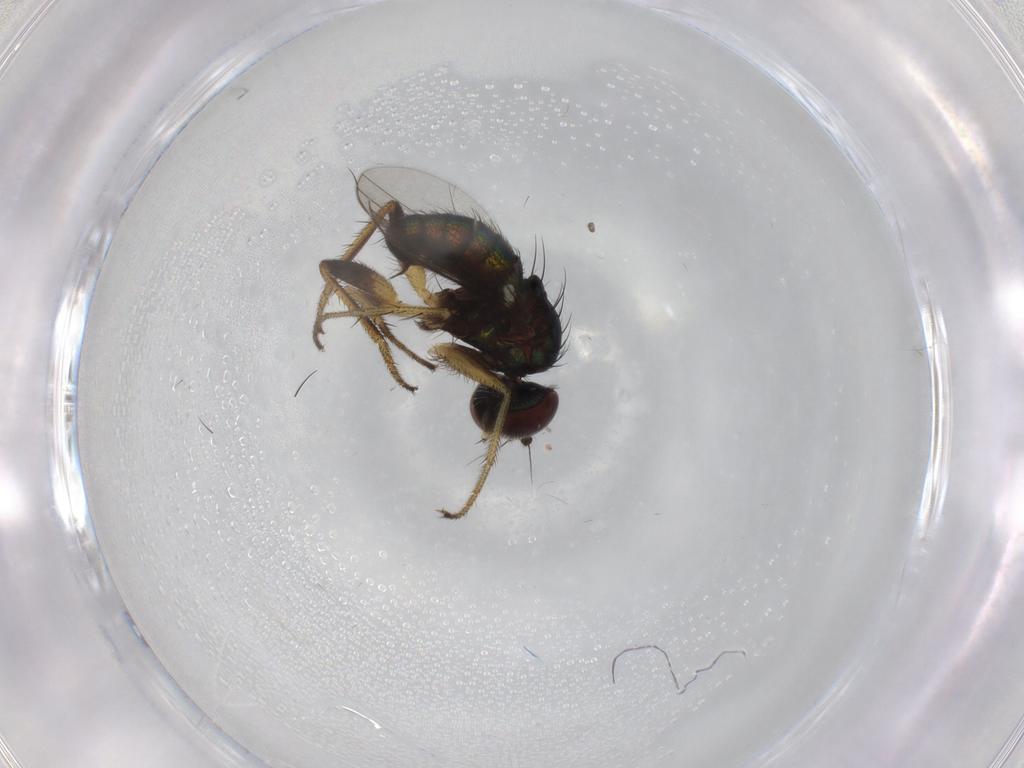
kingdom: Animalia
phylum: Arthropoda
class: Insecta
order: Diptera
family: Dolichopodidae
